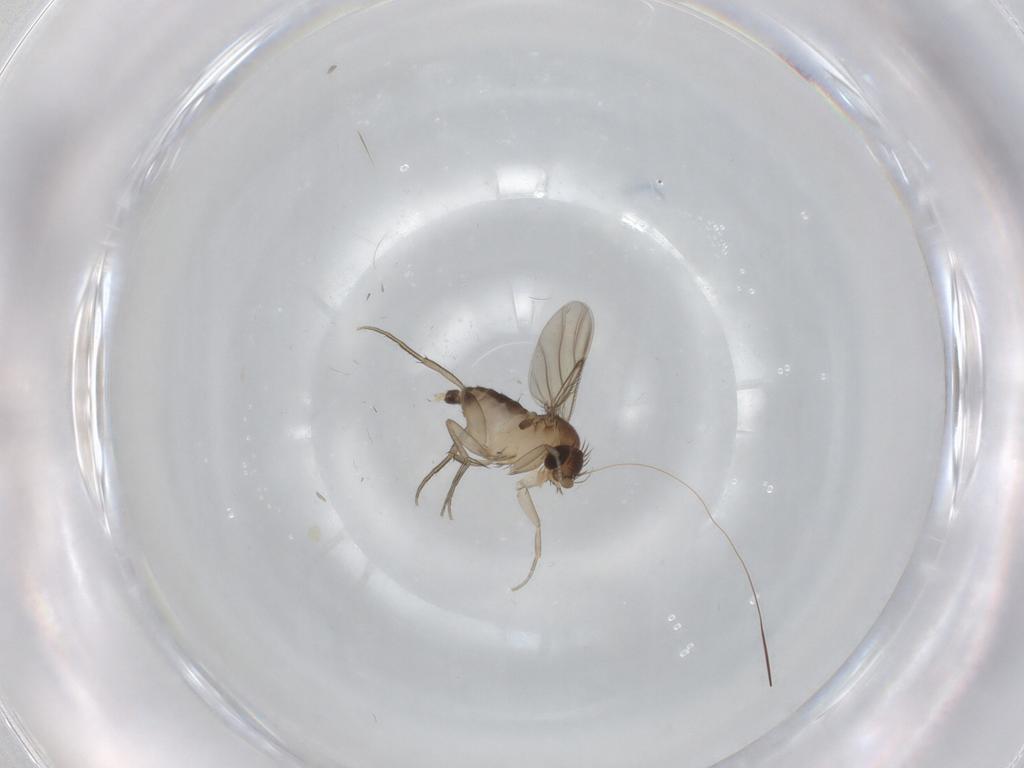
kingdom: Animalia
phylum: Arthropoda
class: Insecta
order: Diptera
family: Phoridae
